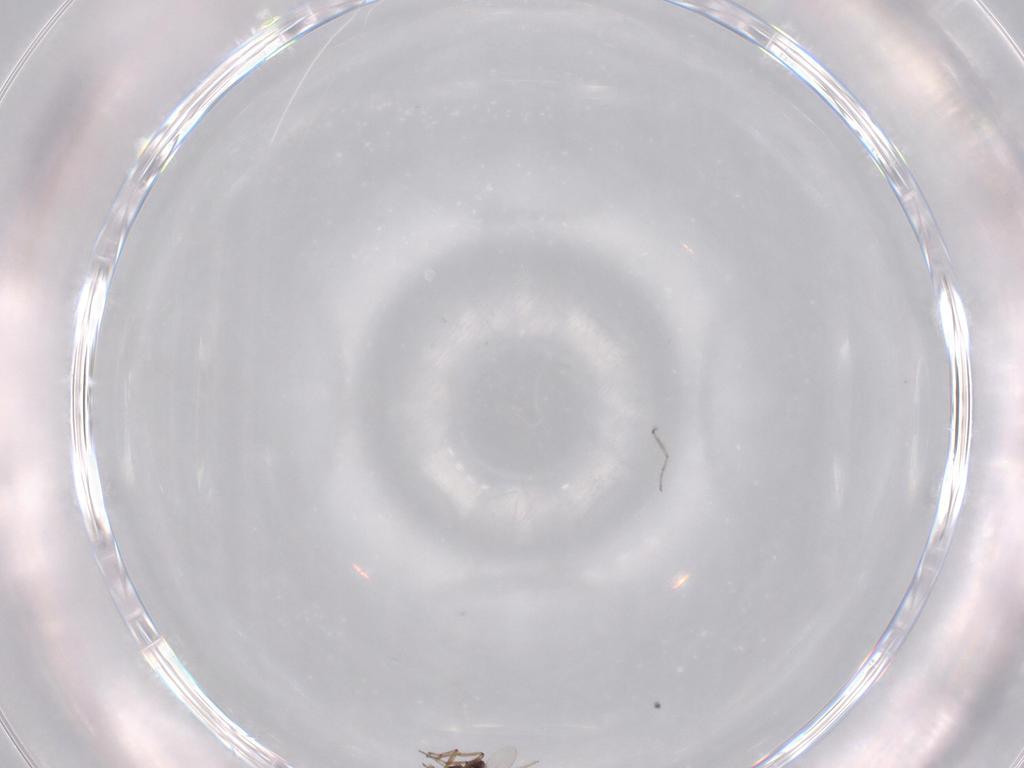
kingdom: Animalia
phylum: Arthropoda
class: Insecta
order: Diptera
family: Ceratopogonidae
